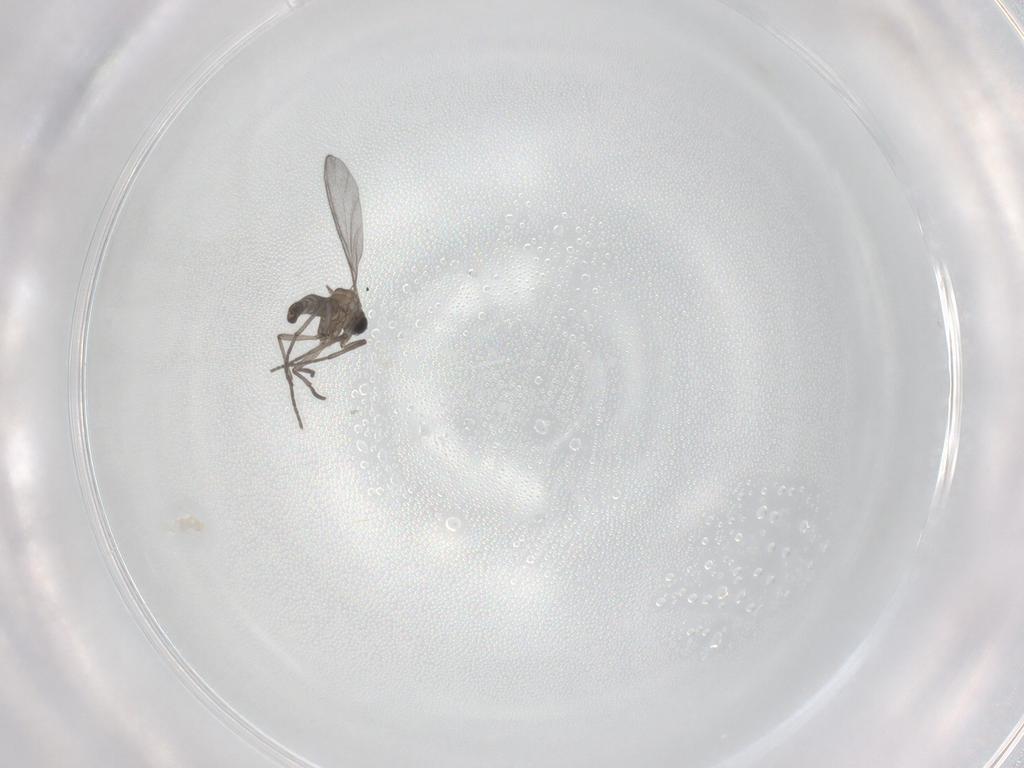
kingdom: Animalia
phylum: Arthropoda
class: Insecta
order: Diptera
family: Sciaridae
